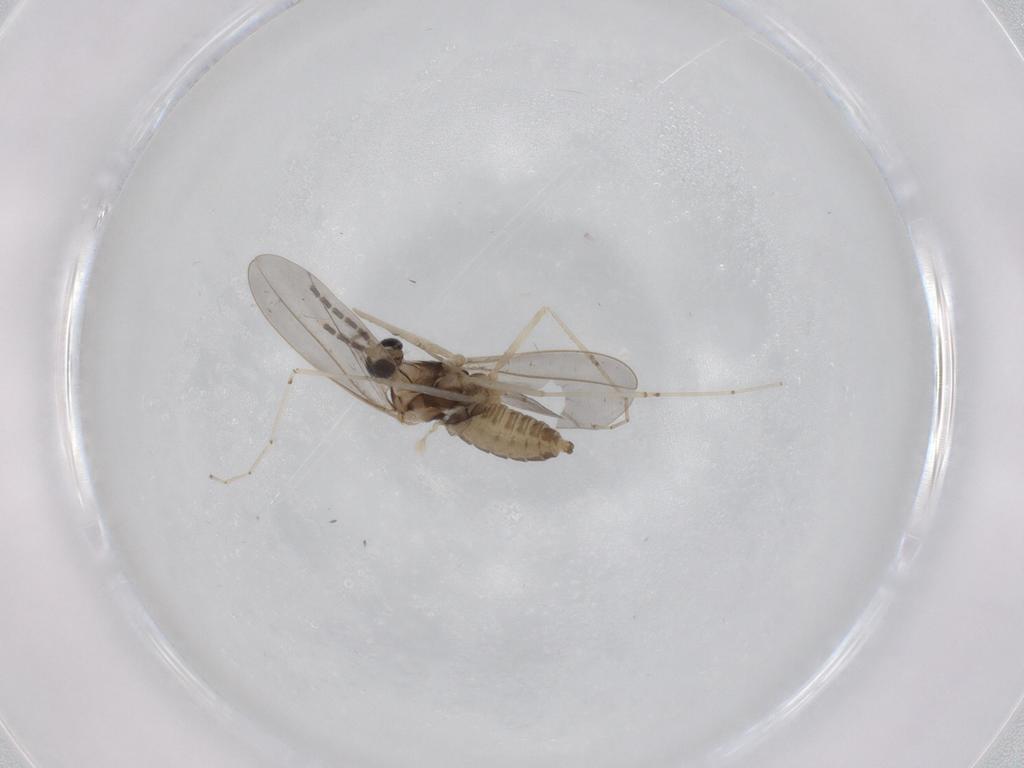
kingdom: Animalia
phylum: Arthropoda
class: Insecta
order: Diptera
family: Cecidomyiidae
